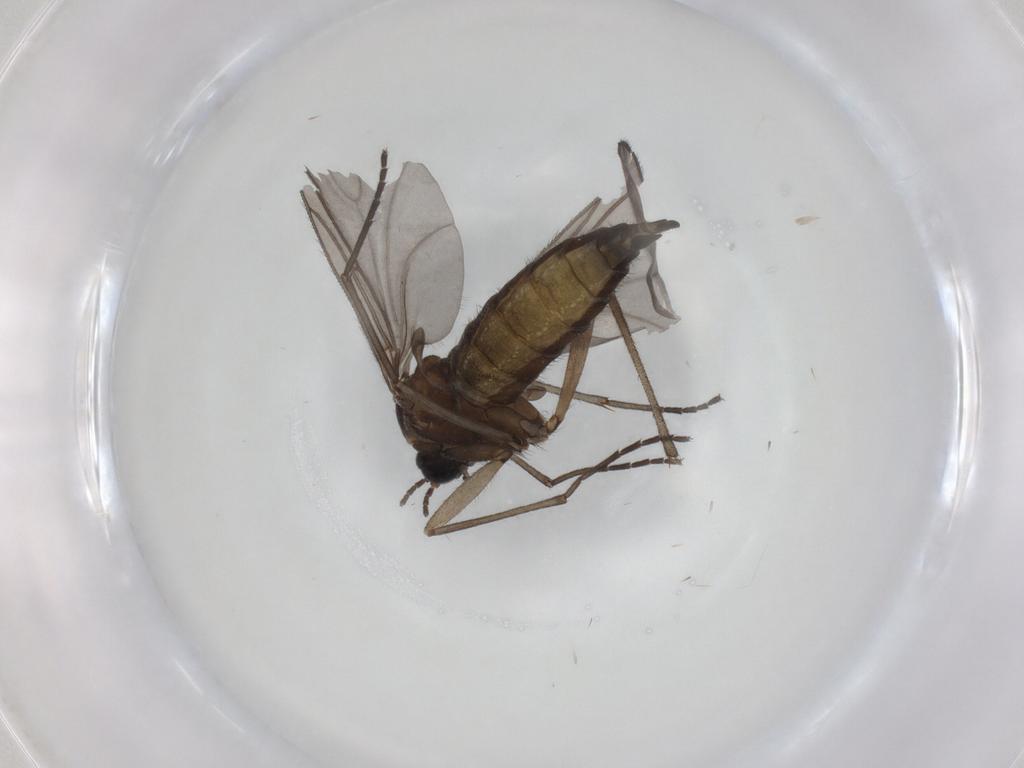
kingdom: Animalia
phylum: Arthropoda
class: Insecta
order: Diptera
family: Sciaridae
